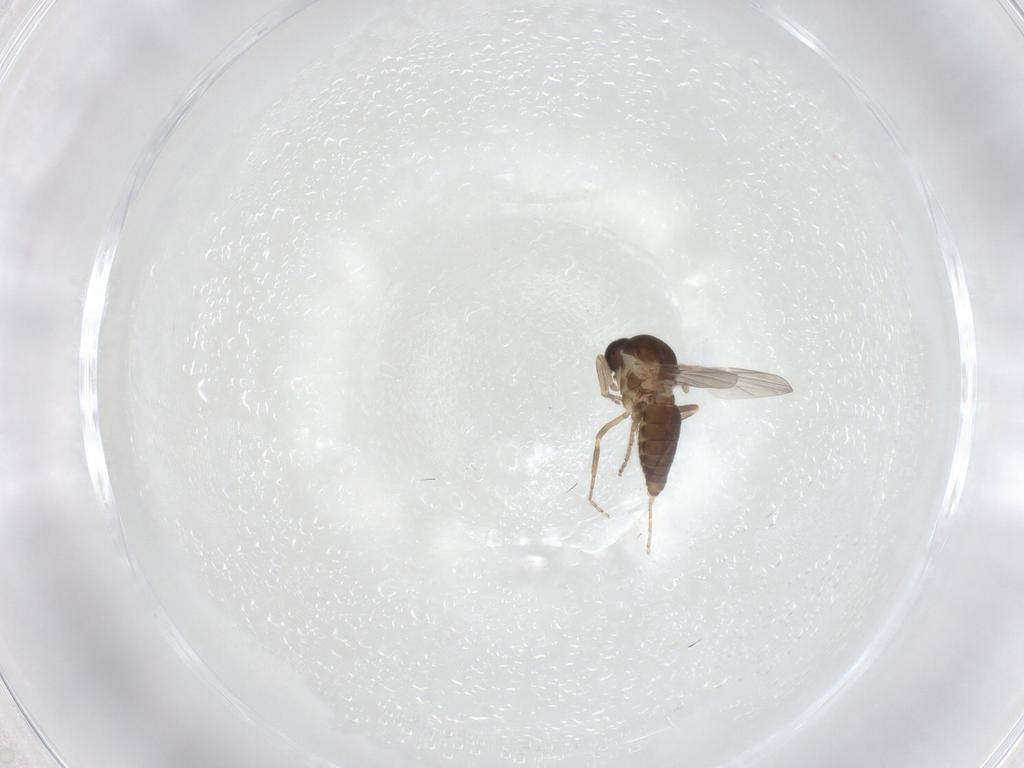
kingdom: Animalia
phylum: Arthropoda
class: Insecta
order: Diptera
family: Ceratopogonidae
